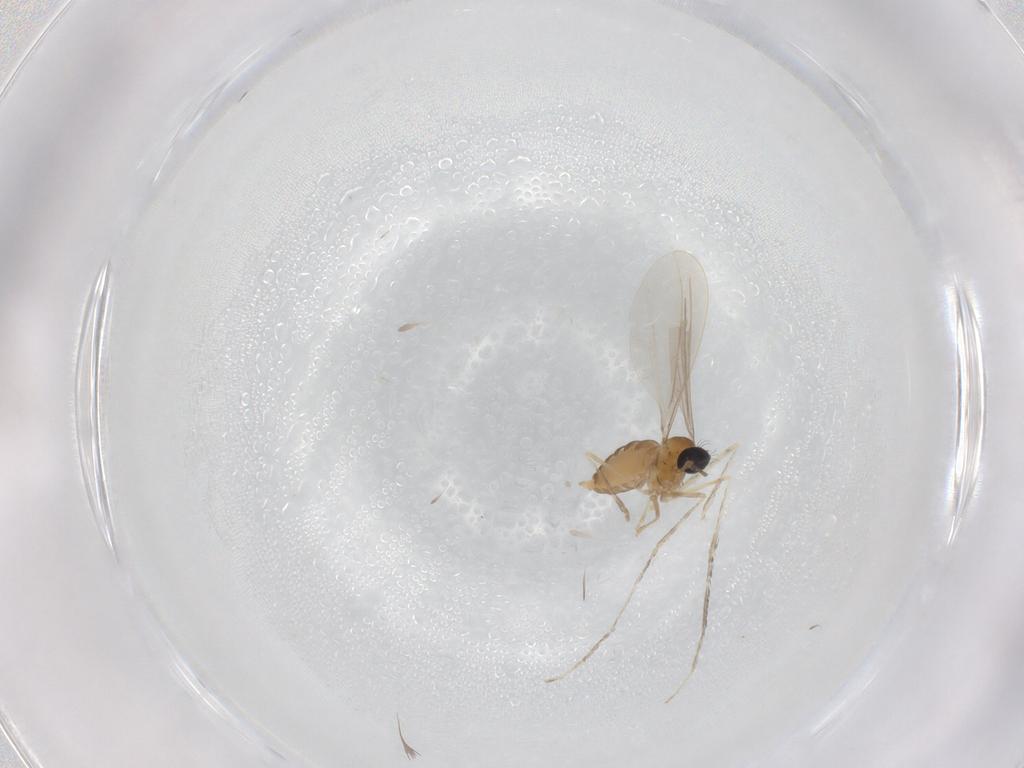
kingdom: Animalia
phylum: Arthropoda
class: Insecta
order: Diptera
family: Cecidomyiidae
